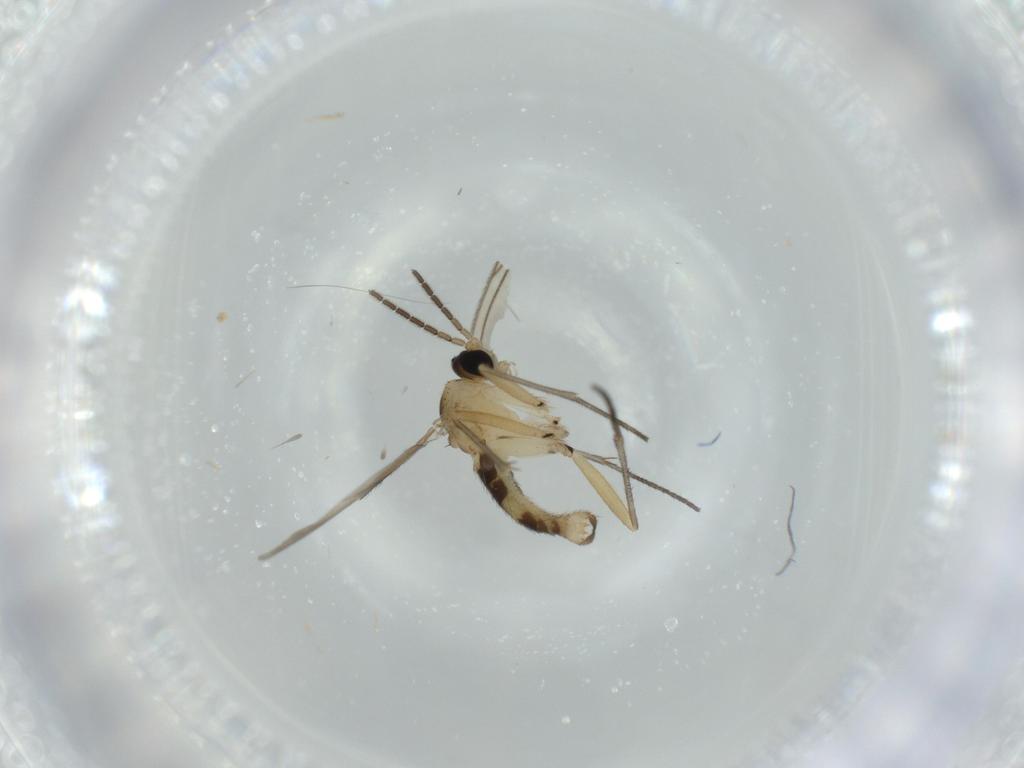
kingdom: Animalia
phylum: Arthropoda
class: Insecta
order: Diptera
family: Sciaridae
